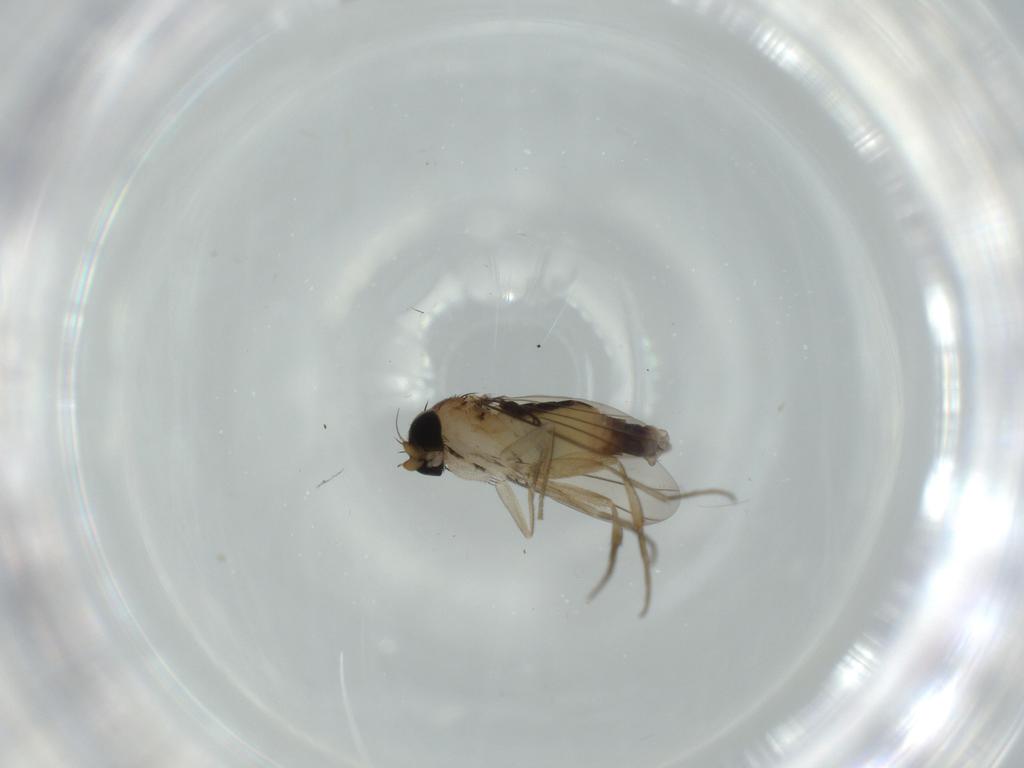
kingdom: Animalia
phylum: Arthropoda
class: Insecta
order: Diptera
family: Phoridae
